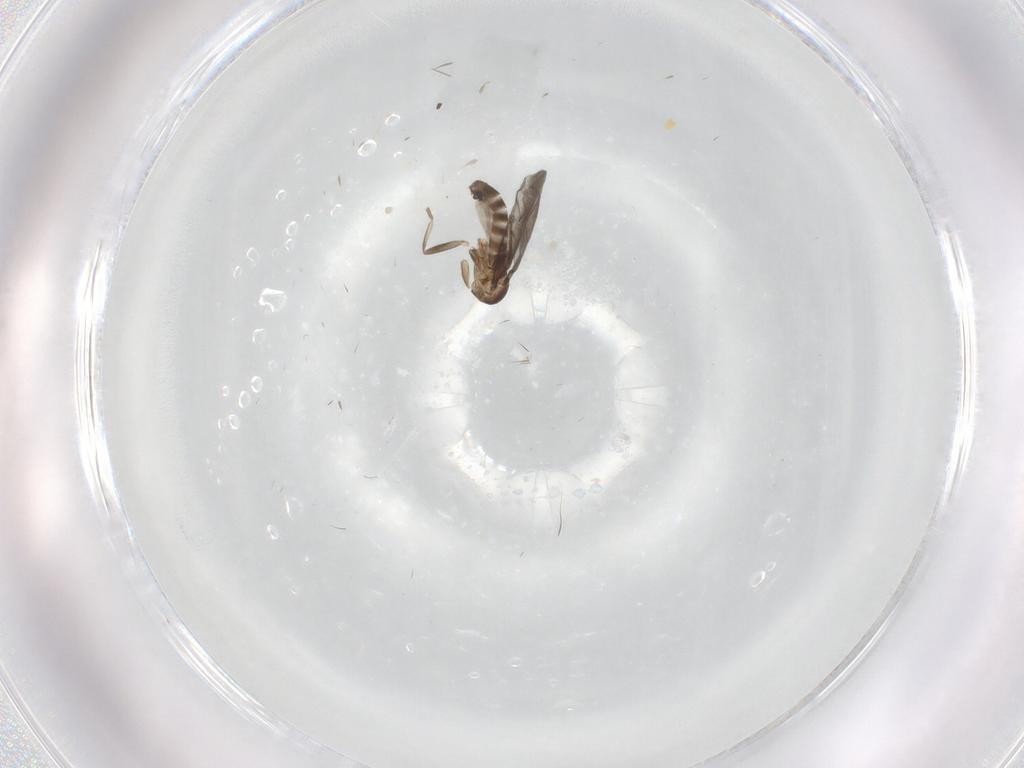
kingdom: Animalia
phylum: Arthropoda
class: Insecta
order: Diptera
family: Phoridae
